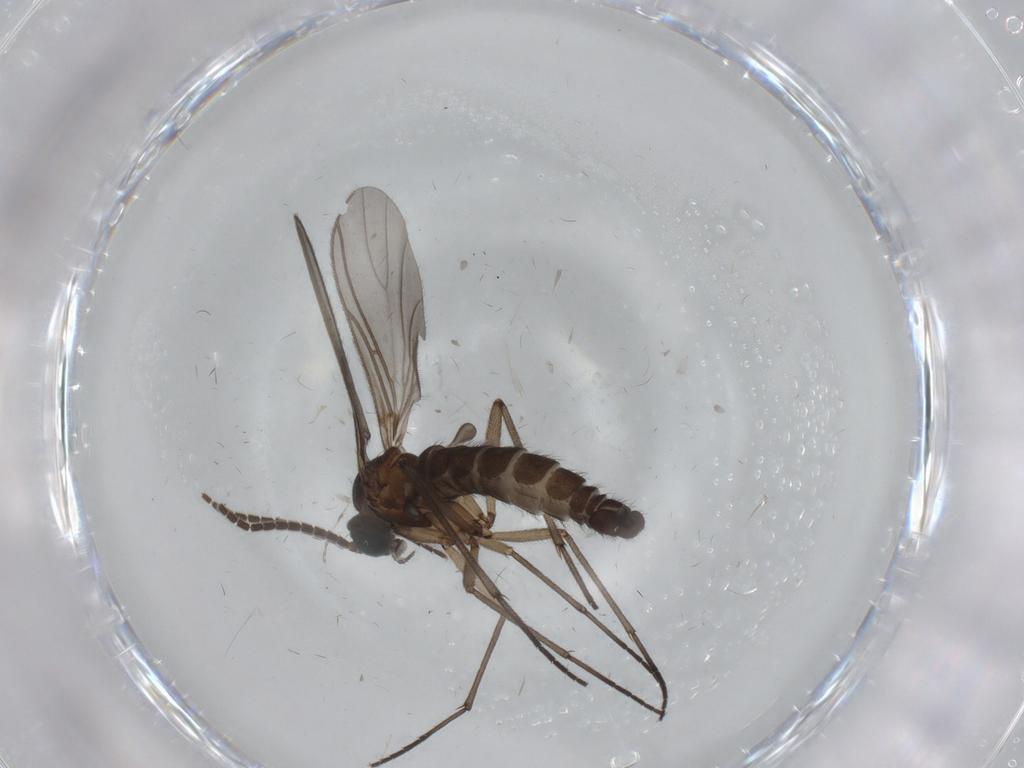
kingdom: Animalia
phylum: Arthropoda
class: Insecta
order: Diptera
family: Sciaridae
